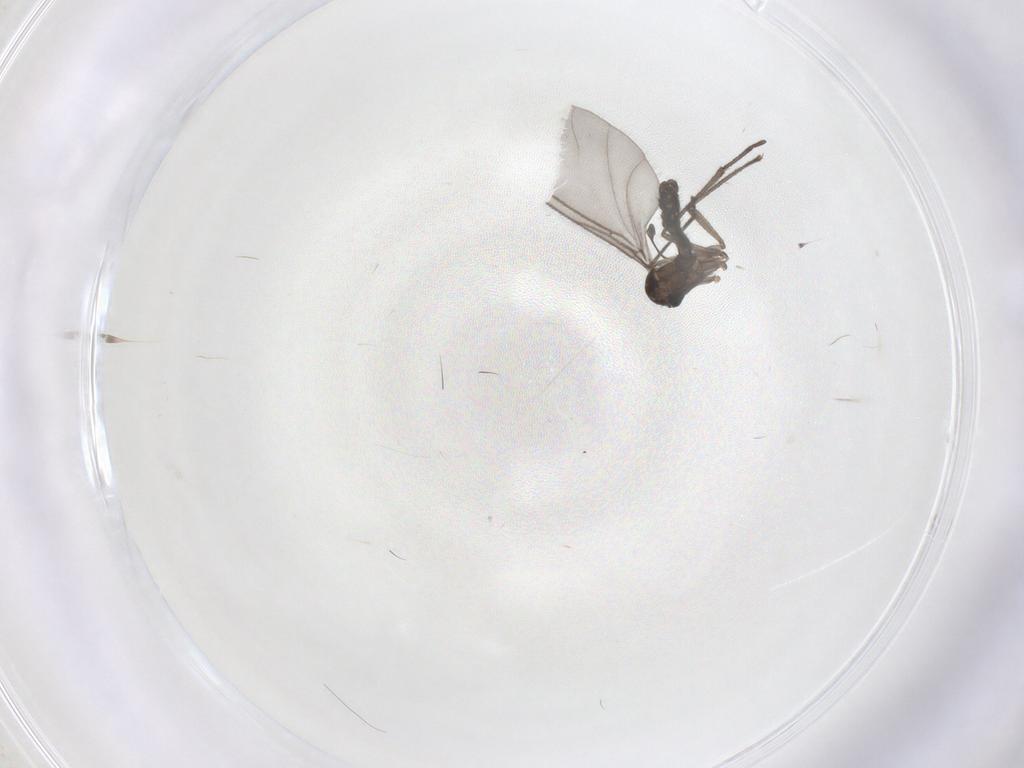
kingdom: Animalia
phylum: Arthropoda
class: Insecta
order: Diptera
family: Sciaridae
